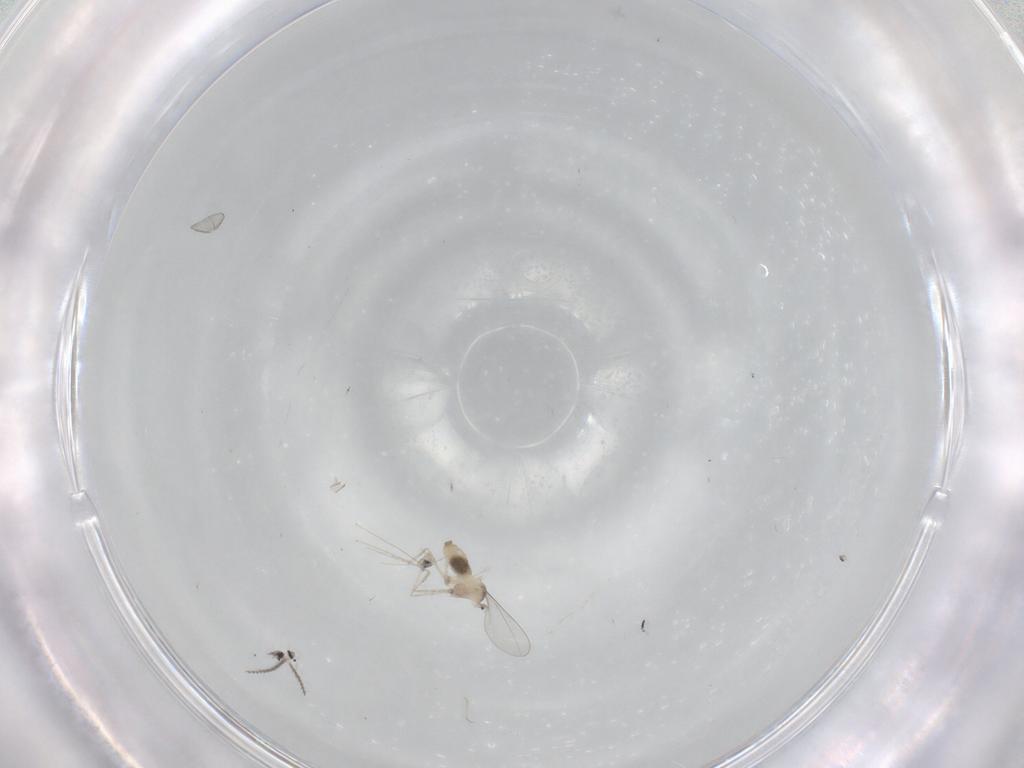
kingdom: Animalia
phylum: Arthropoda
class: Insecta
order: Diptera
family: Cecidomyiidae
